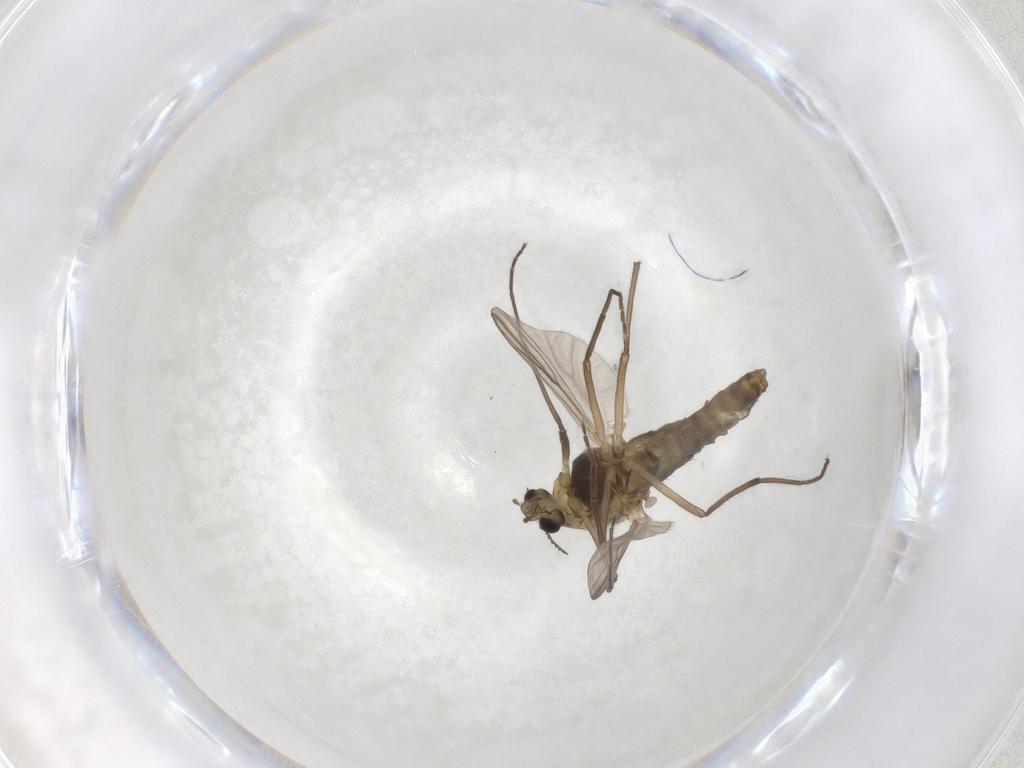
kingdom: Animalia
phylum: Arthropoda
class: Insecta
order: Diptera
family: Chironomidae
